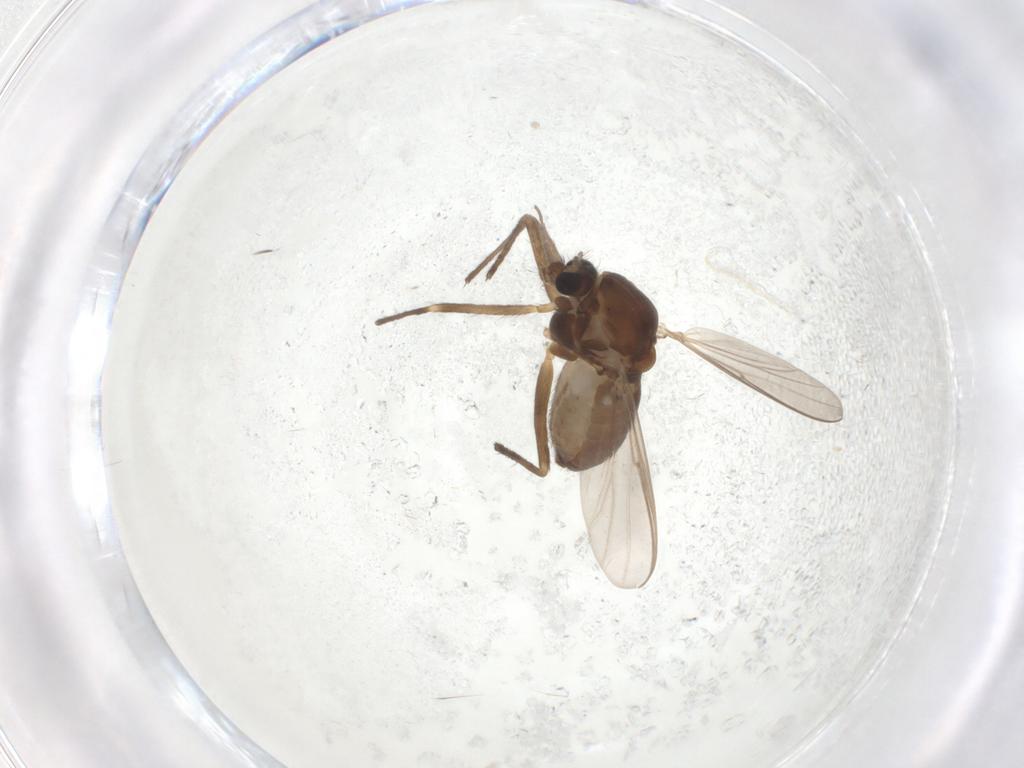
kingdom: Animalia
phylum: Arthropoda
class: Insecta
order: Diptera
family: Chironomidae
